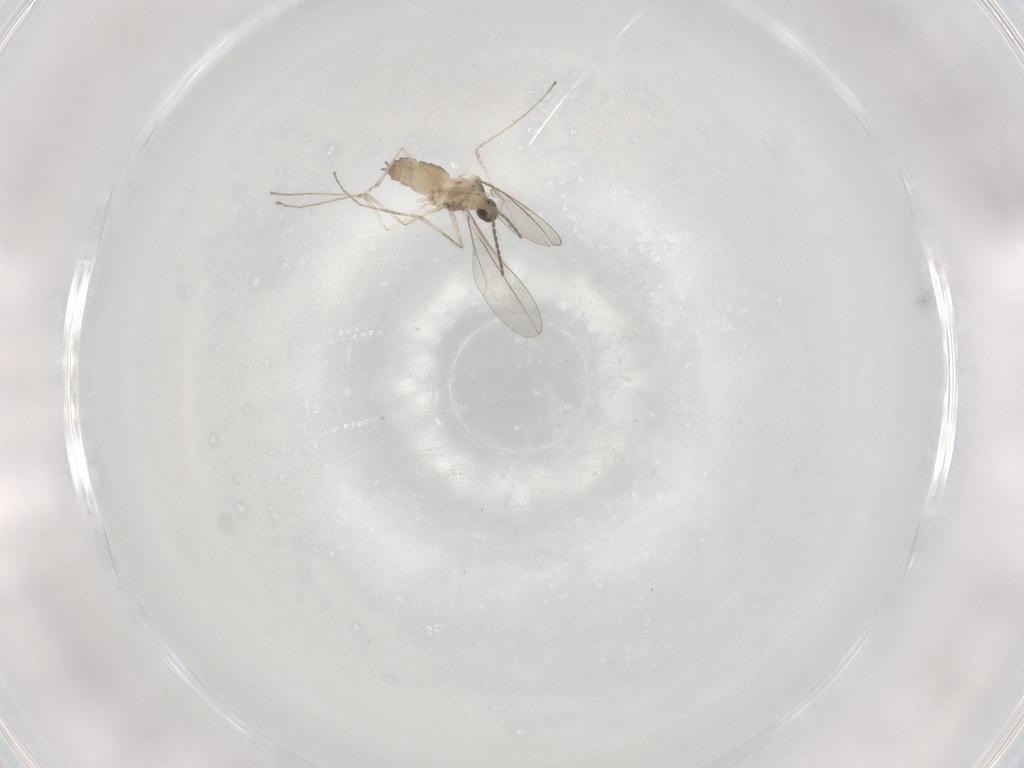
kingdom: Animalia
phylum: Arthropoda
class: Insecta
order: Diptera
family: Cecidomyiidae
